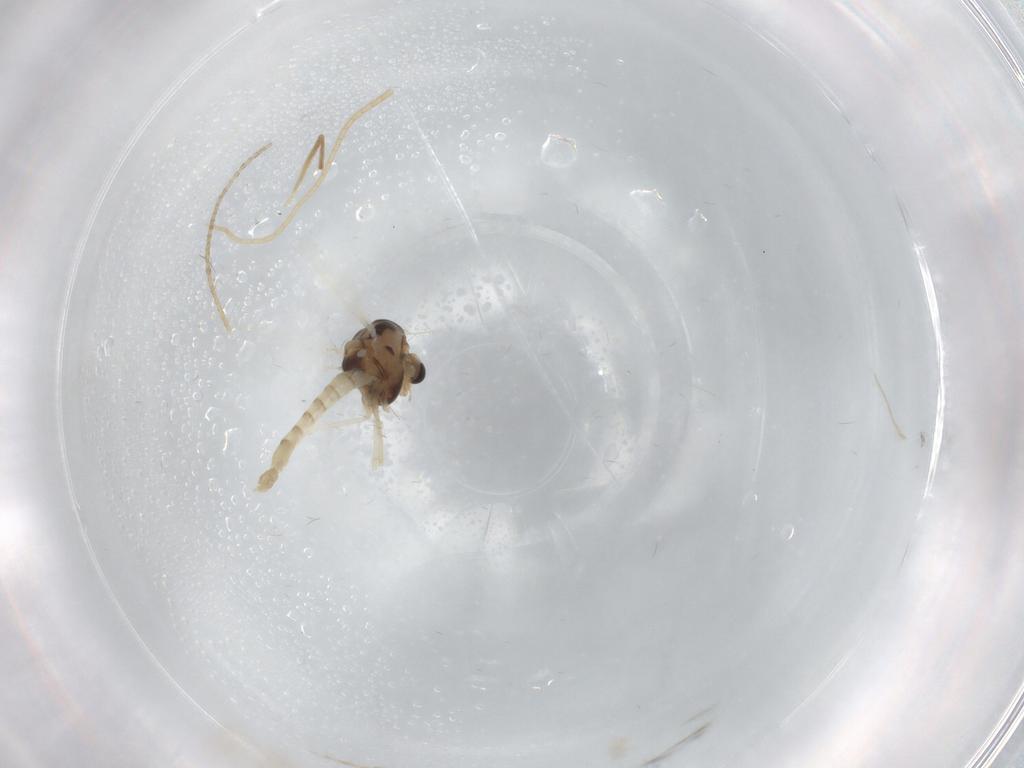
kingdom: Animalia
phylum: Arthropoda
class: Insecta
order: Diptera
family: Chironomidae
